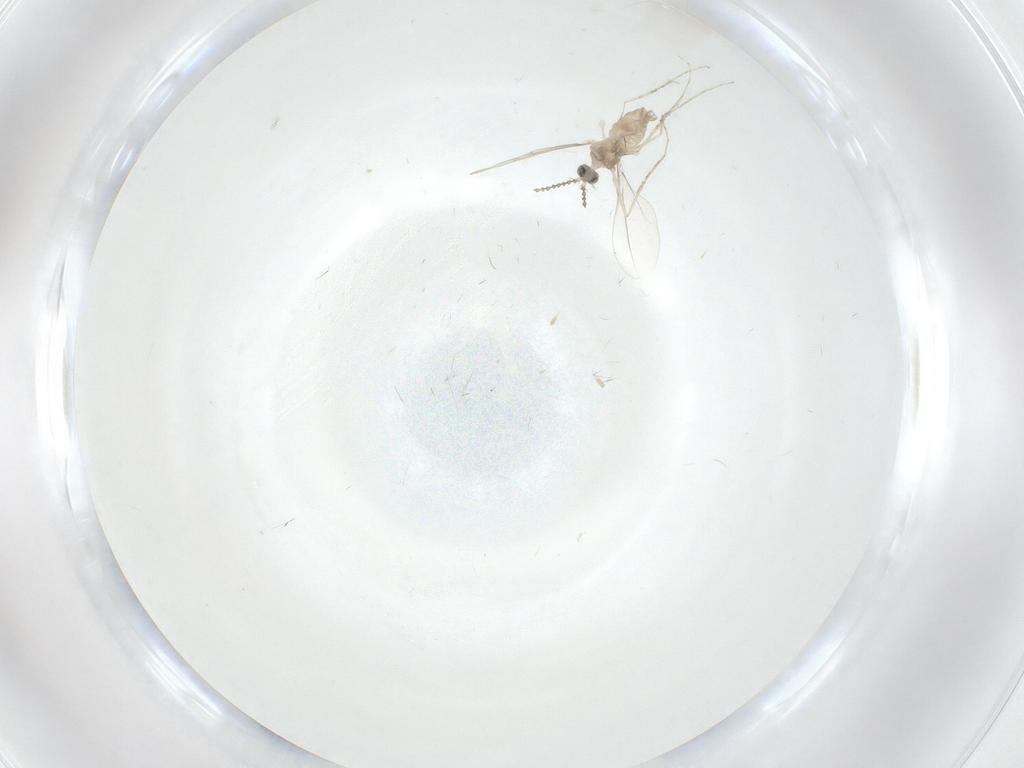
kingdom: Animalia
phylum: Arthropoda
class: Insecta
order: Diptera
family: Cecidomyiidae
